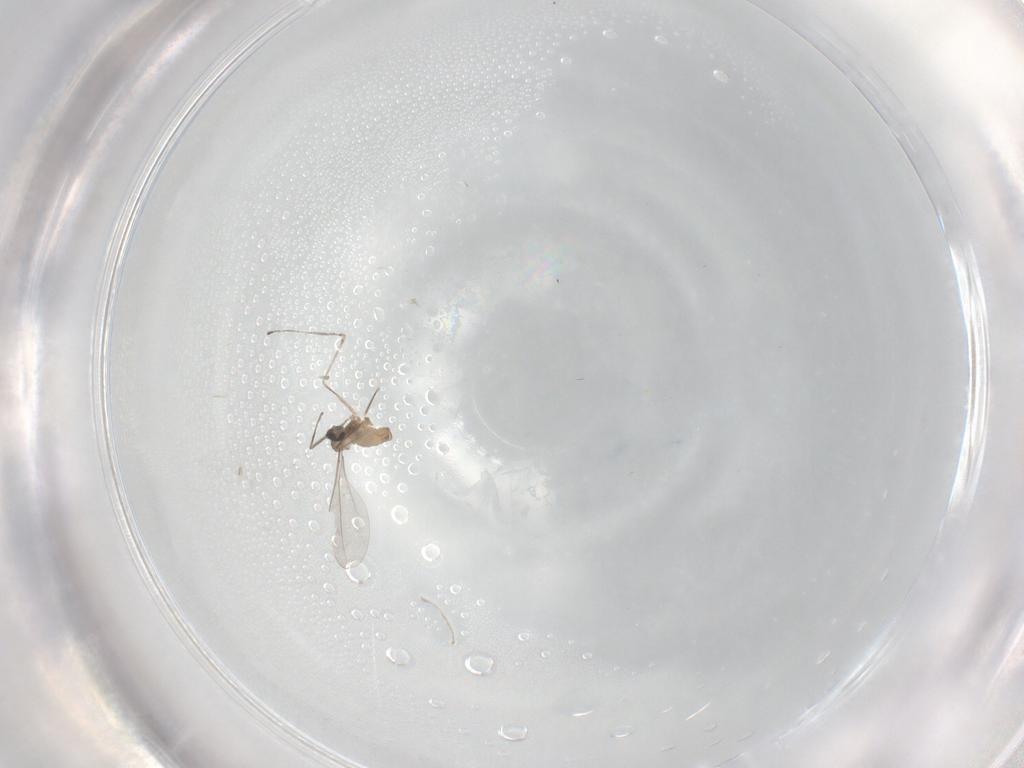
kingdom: Animalia
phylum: Arthropoda
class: Insecta
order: Diptera
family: Cecidomyiidae
